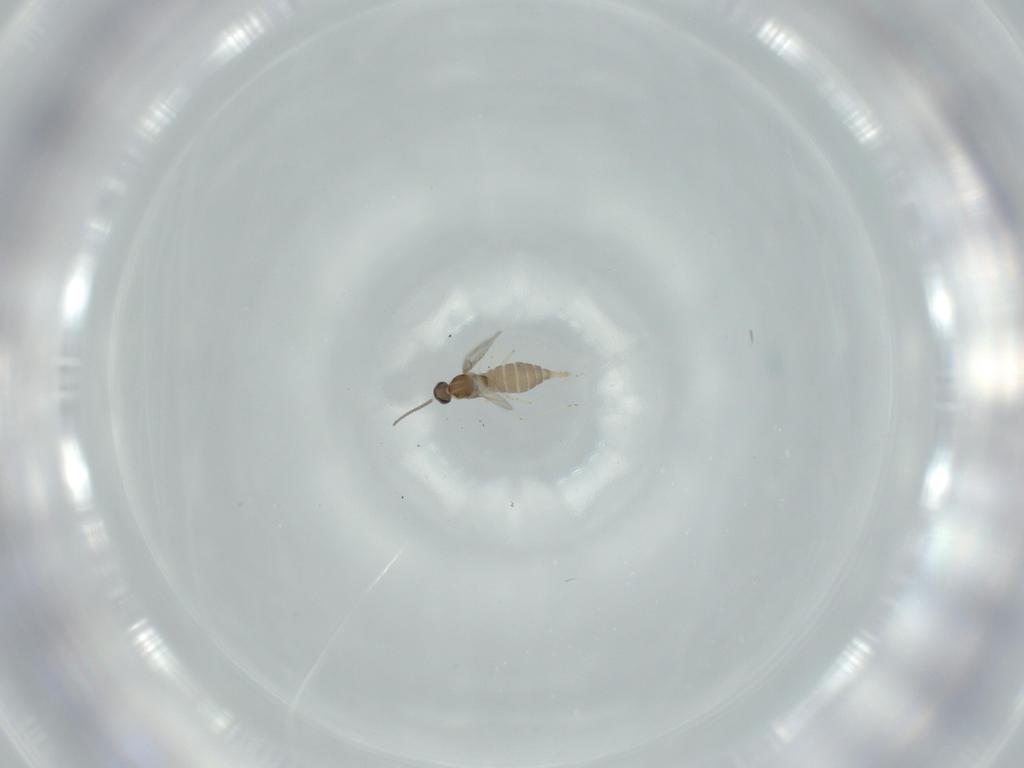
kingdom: Animalia
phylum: Arthropoda
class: Insecta
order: Diptera
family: Cecidomyiidae
